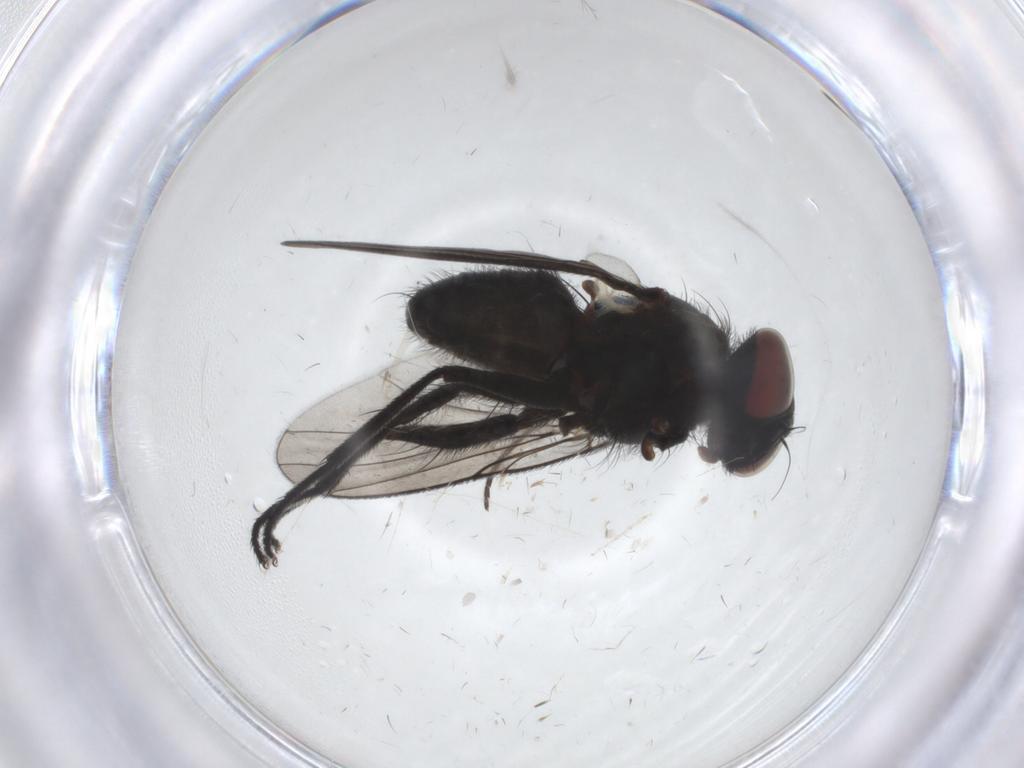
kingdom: Animalia
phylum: Arthropoda
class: Insecta
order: Diptera
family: Muscidae
